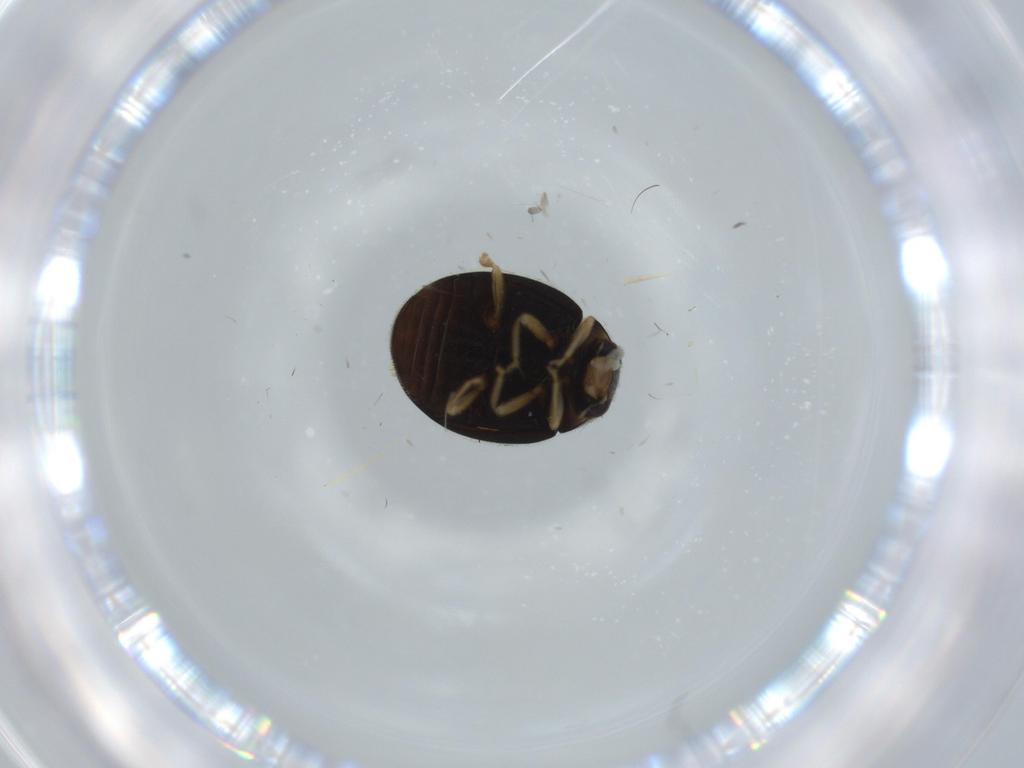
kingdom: Animalia
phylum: Arthropoda
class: Insecta
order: Coleoptera
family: Coccinellidae
